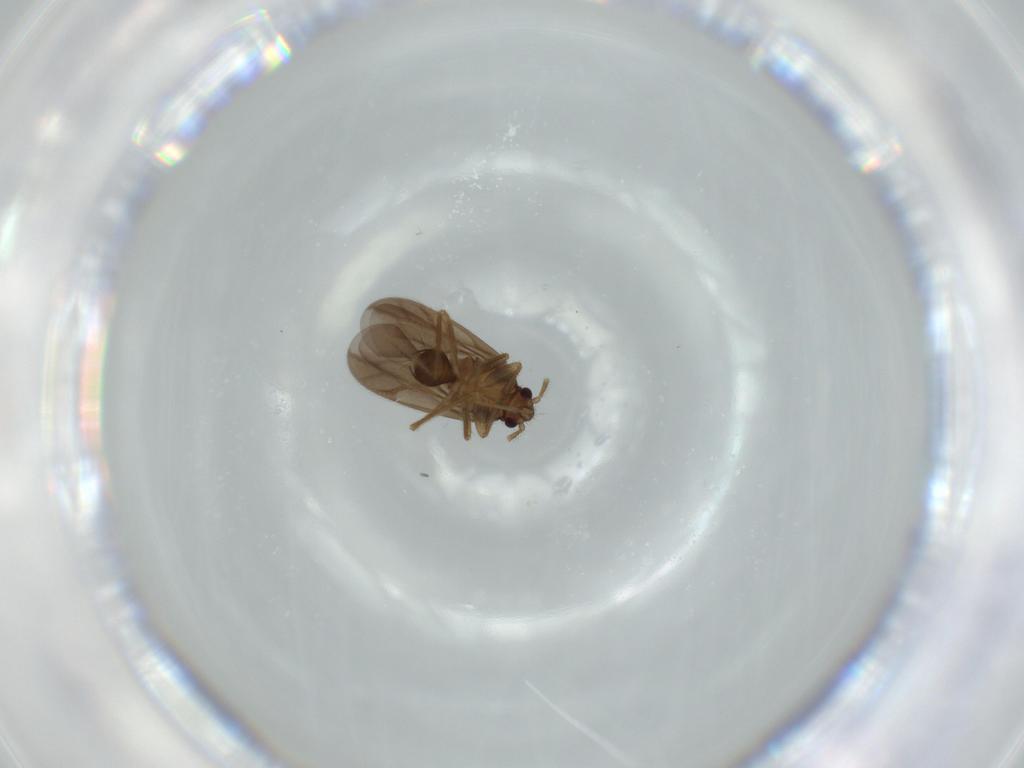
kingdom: Animalia
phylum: Arthropoda
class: Insecta
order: Hemiptera
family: Ceratocombidae
